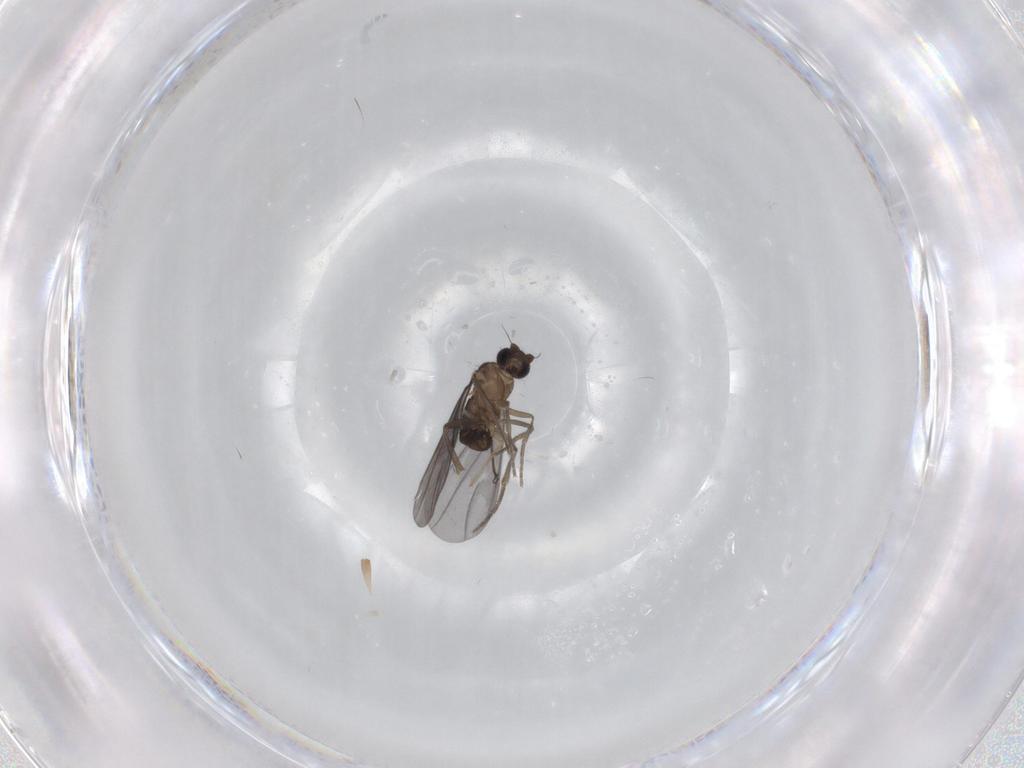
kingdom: Animalia
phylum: Arthropoda
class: Insecta
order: Diptera
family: Phoridae
